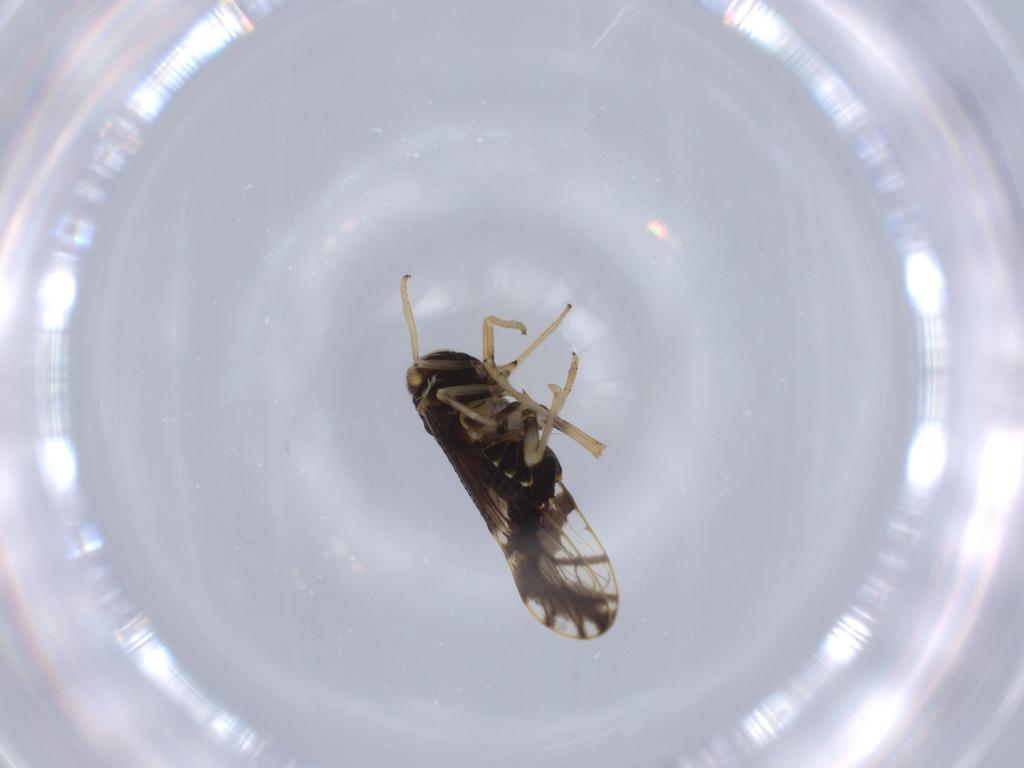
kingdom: Animalia
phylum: Arthropoda
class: Insecta
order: Psocodea
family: Lachesillidae
